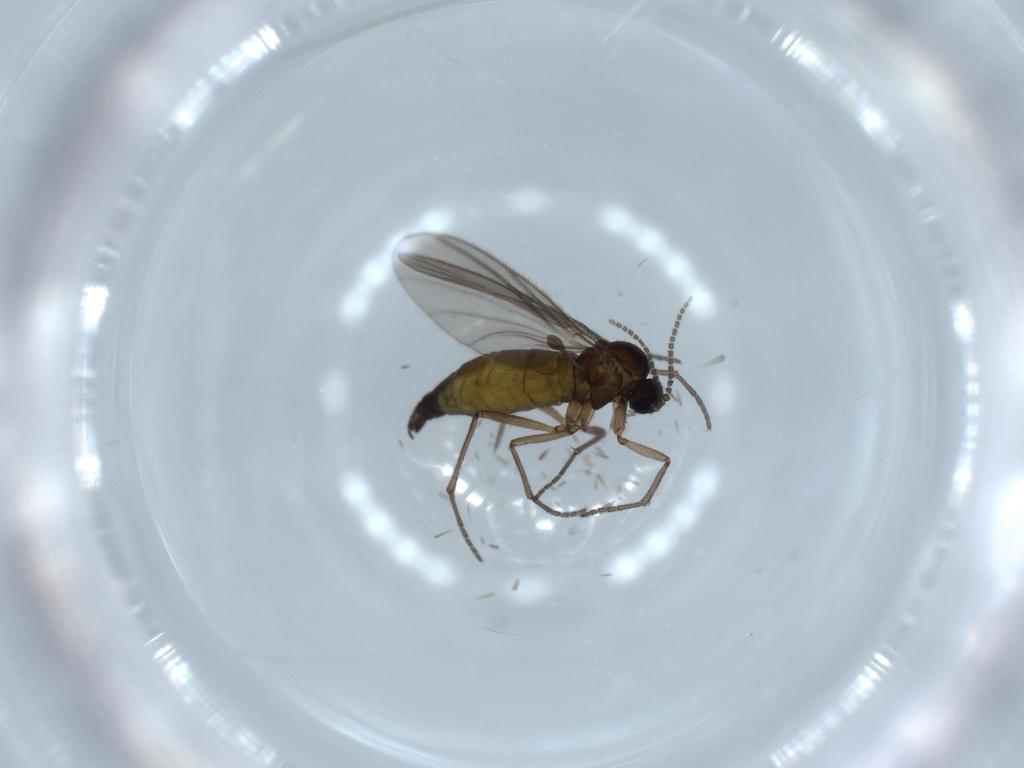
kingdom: Animalia
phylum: Arthropoda
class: Insecta
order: Diptera
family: Sciaridae
